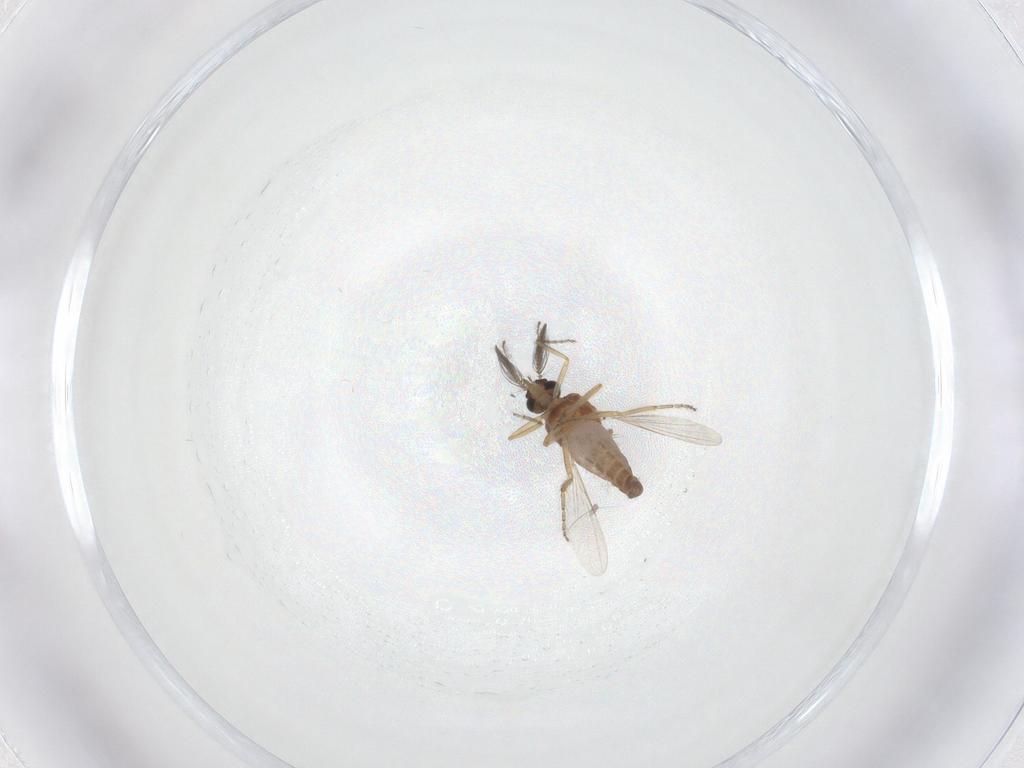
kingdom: Animalia
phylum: Arthropoda
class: Insecta
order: Diptera
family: Ceratopogonidae
